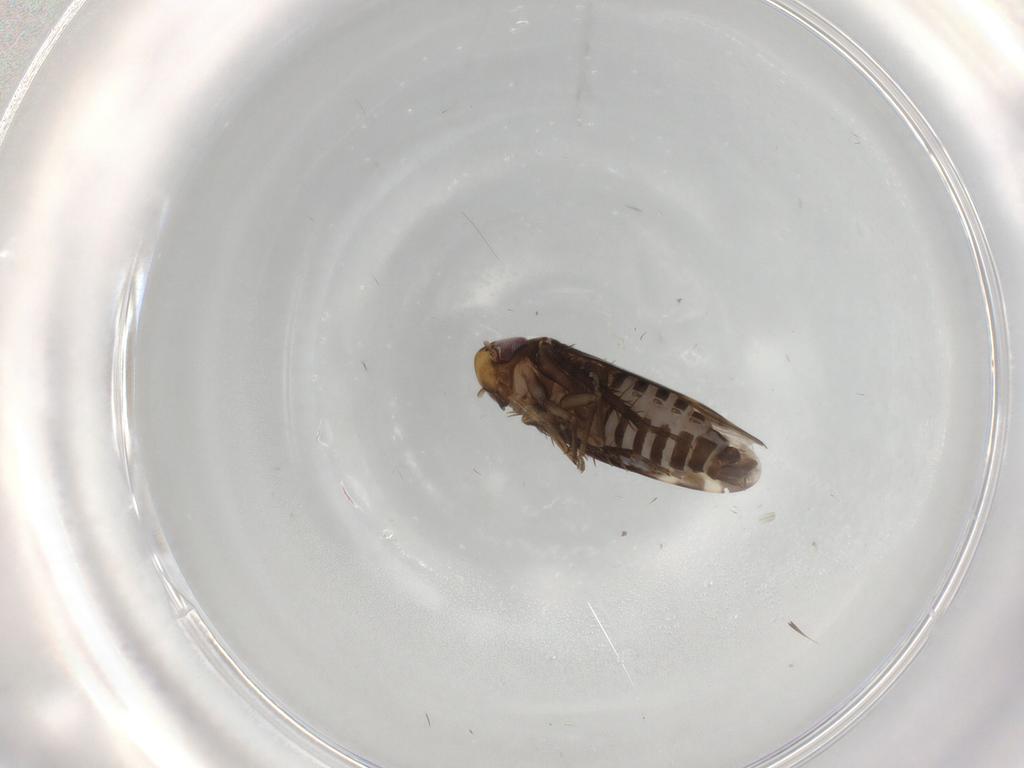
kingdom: Animalia
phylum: Arthropoda
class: Insecta
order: Hemiptera
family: Cicadellidae
